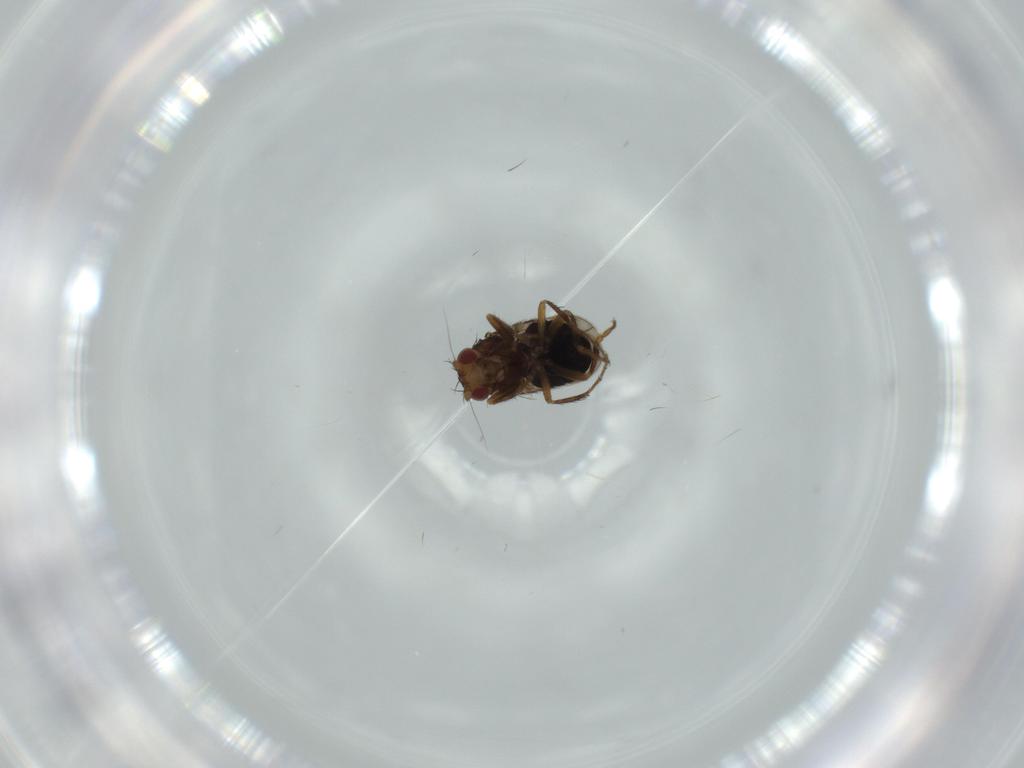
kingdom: Animalia
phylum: Arthropoda
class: Insecta
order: Diptera
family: Sphaeroceridae
